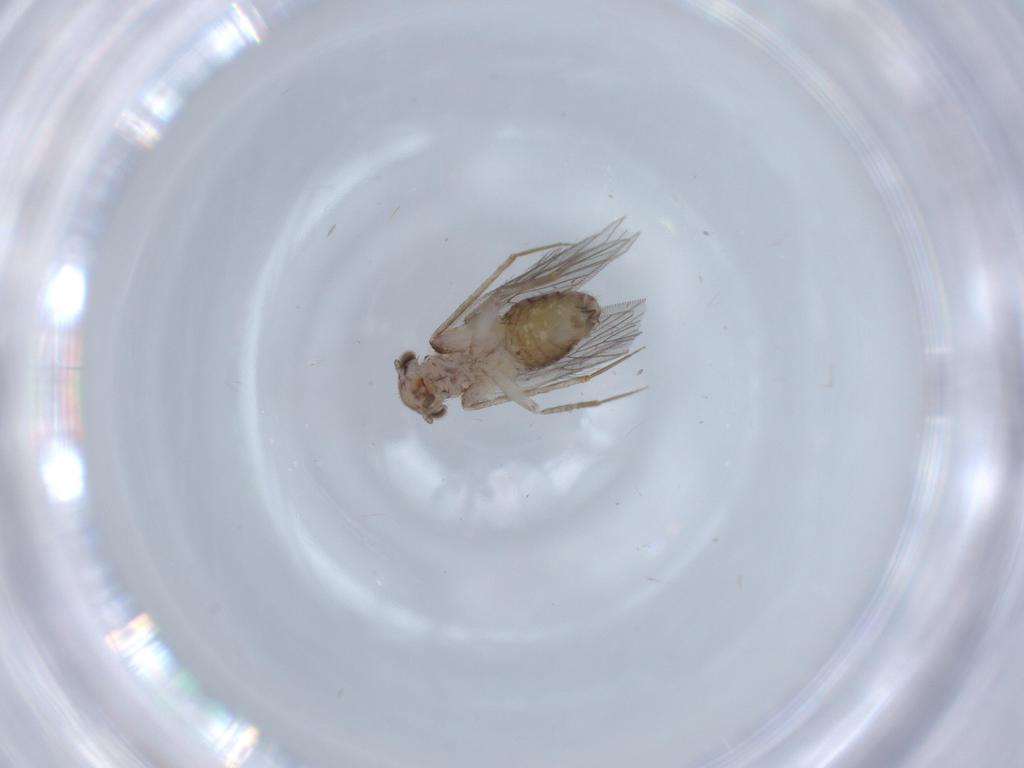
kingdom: Animalia
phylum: Arthropoda
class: Insecta
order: Psocodea
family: Lepidopsocidae
